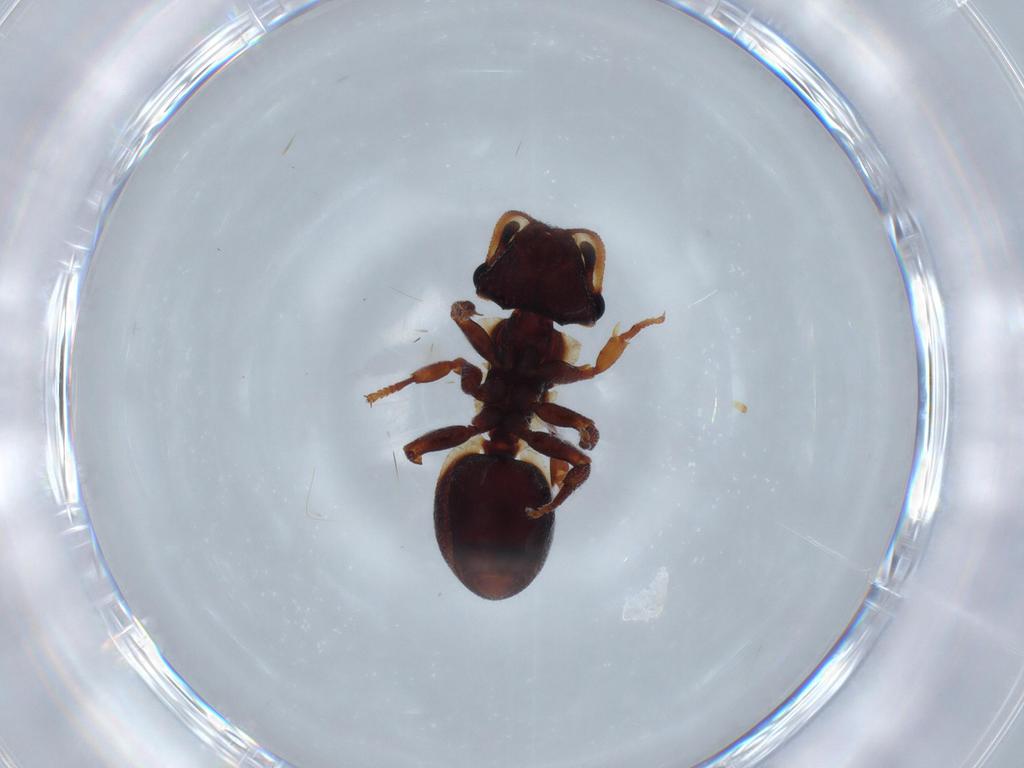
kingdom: Animalia
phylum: Arthropoda
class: Insecta
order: Hymenoptera
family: Formicidae
